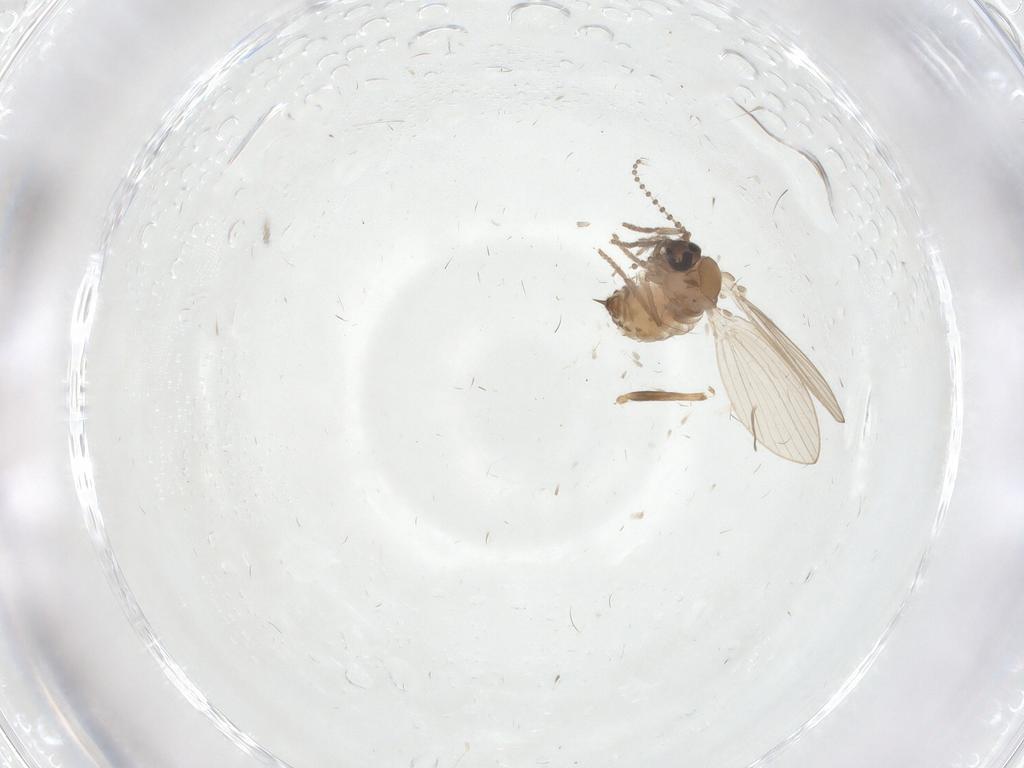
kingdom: Animalia
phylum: Arthropoda
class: Insecta
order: Diptera
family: Chironomidae
